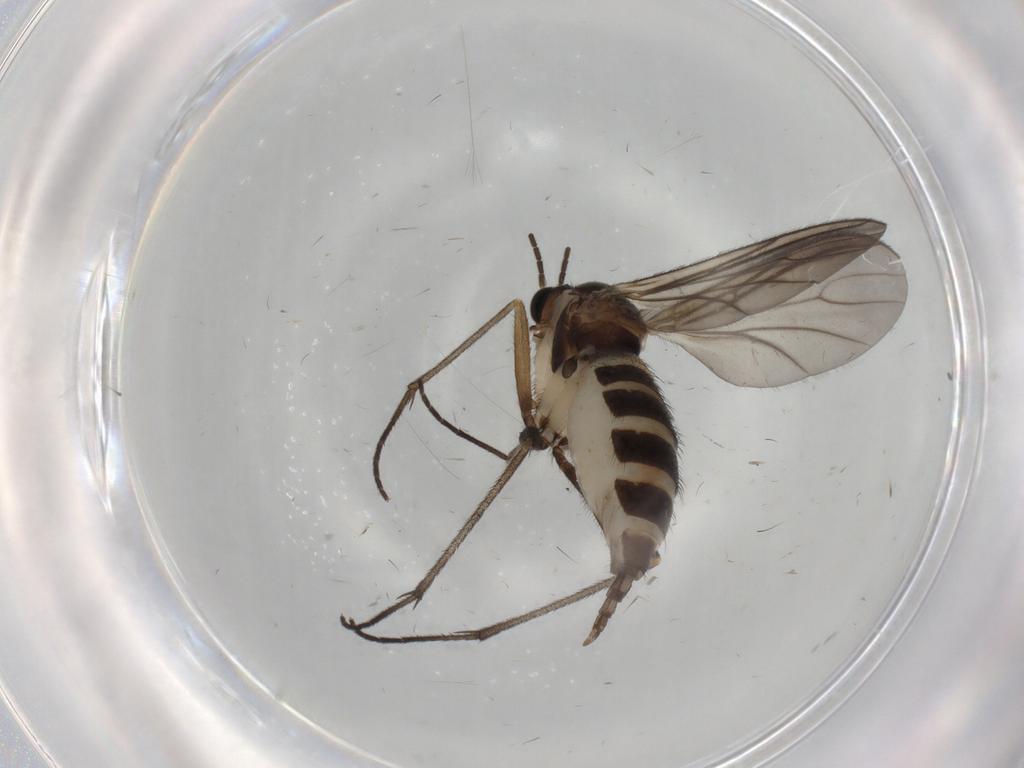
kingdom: Animalia
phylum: Arthropoda
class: Insecta
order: Diptera
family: Sciaridae
